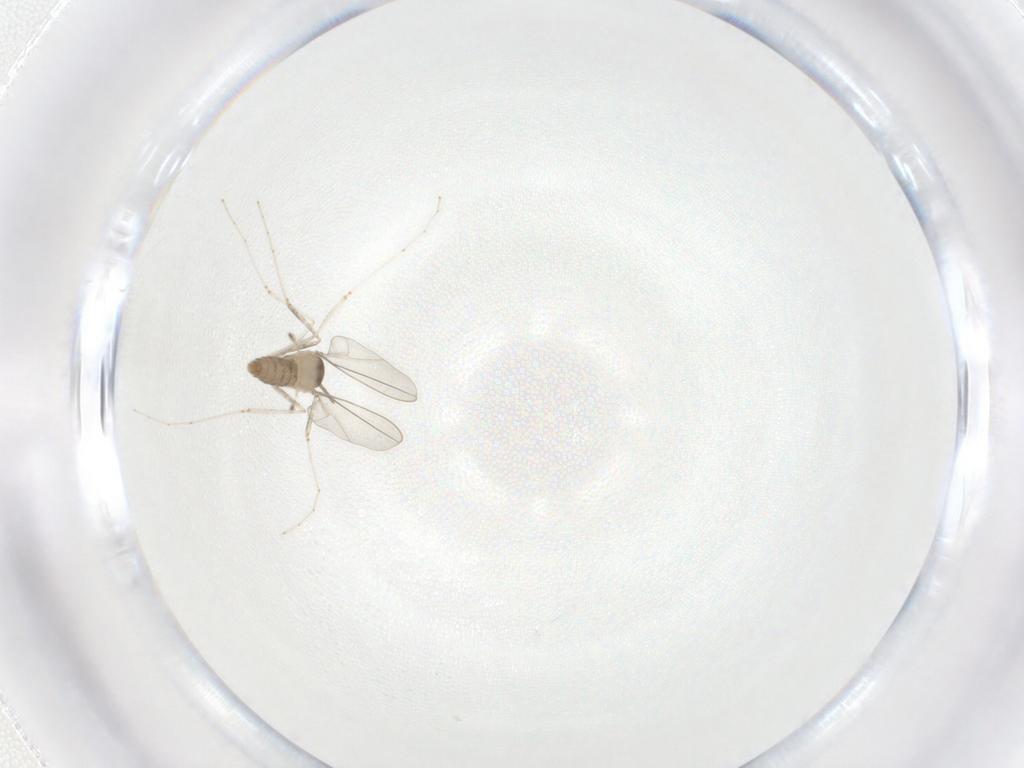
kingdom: Animalia
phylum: Arthropoda
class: Insecta
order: Diptera
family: Cecidomyiidae
